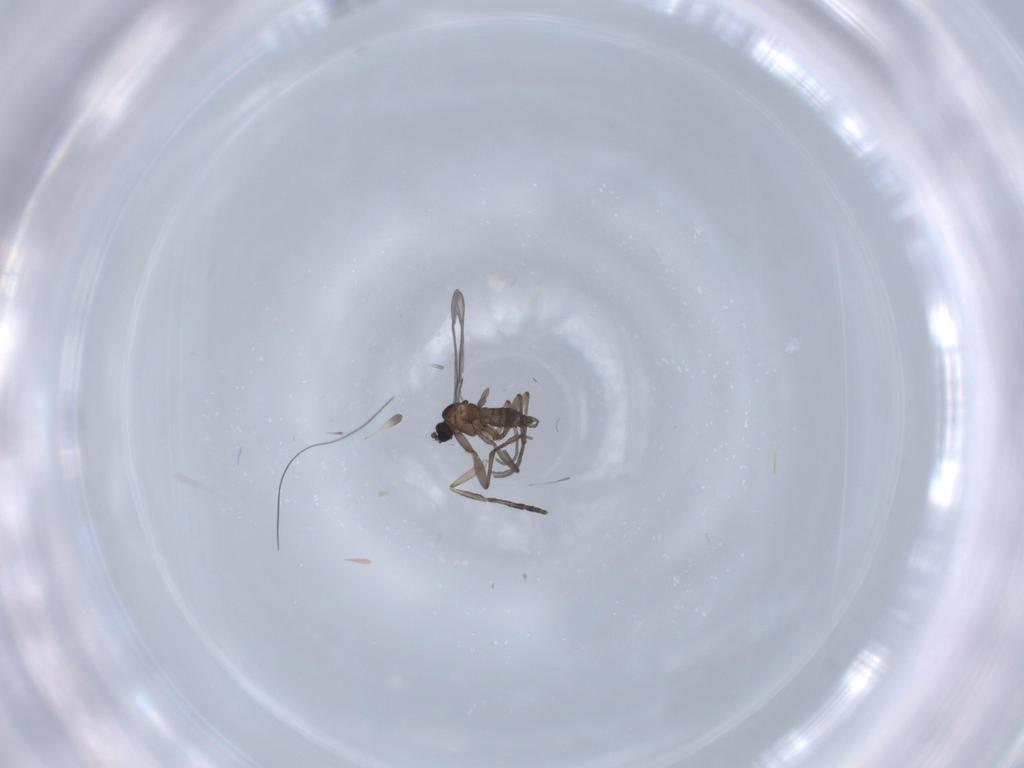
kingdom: Animalia
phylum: Arthropoda
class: Insecta
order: Diptera
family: Sciaridae
